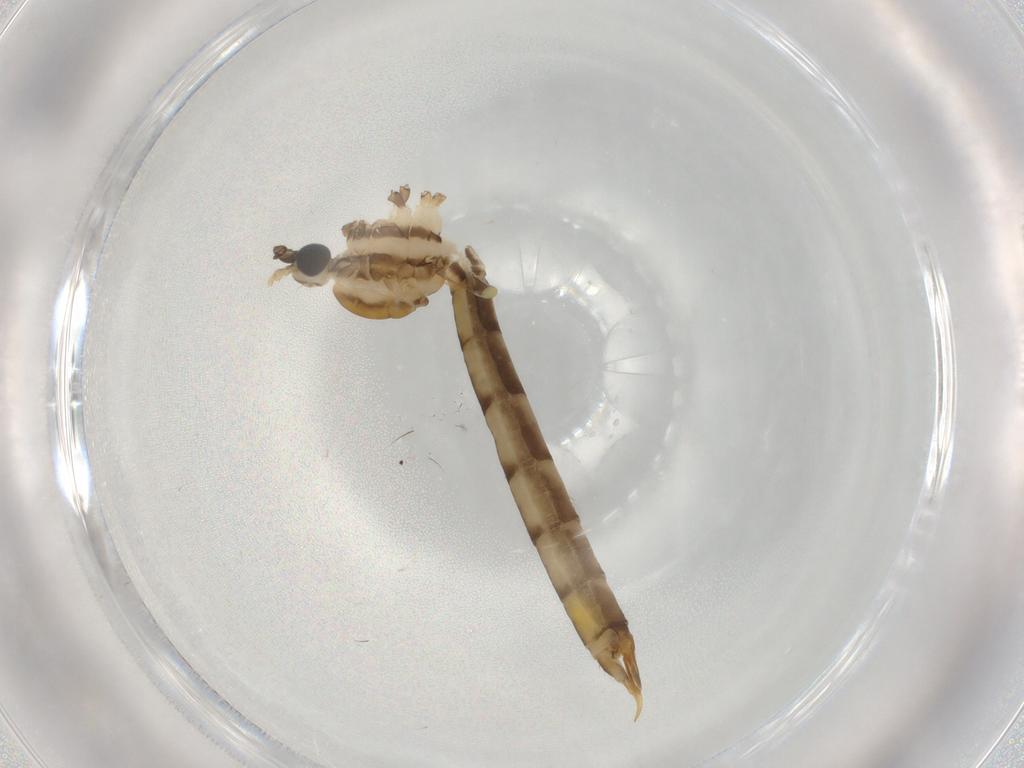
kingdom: Animalia
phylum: Arthropoda
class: Insecta
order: Diptera
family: Limoniidae
